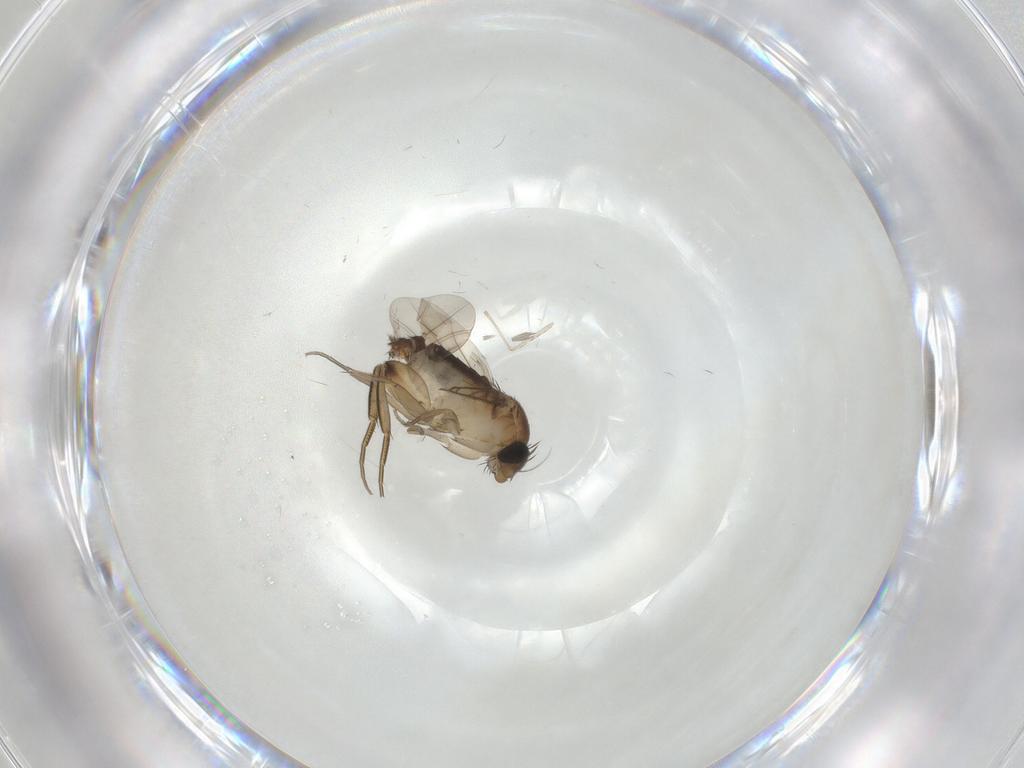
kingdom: Animalia
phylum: Arthropoda
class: Insecta
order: Diptera
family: Phoridae
